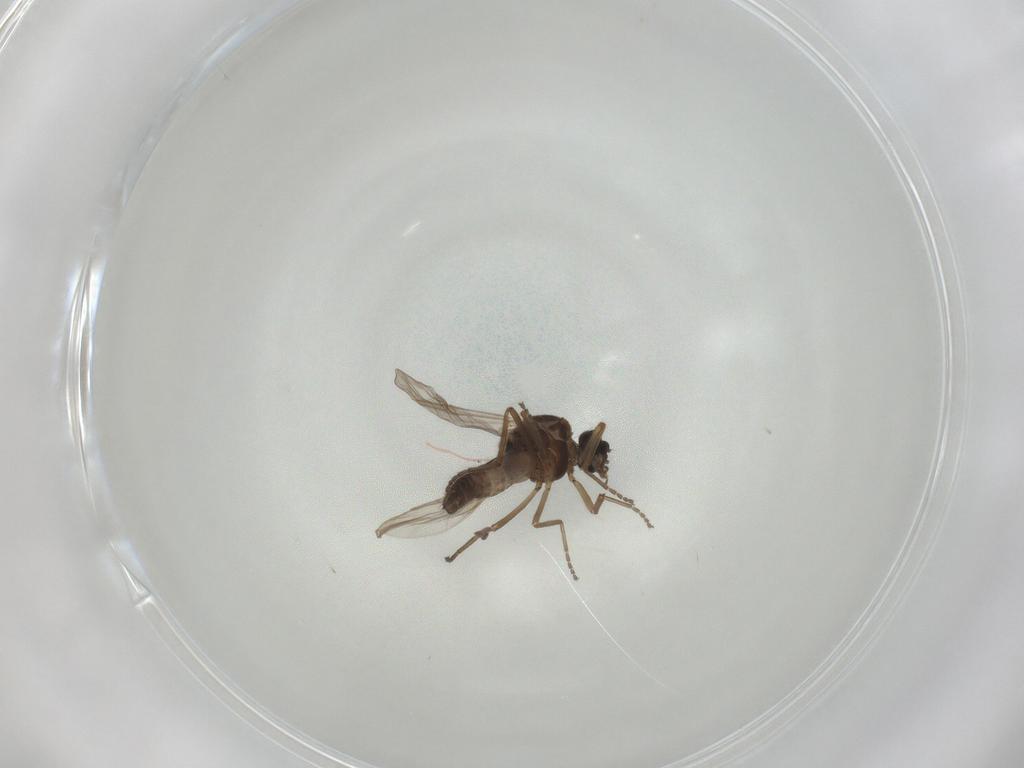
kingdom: Animalia
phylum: Arthropoda
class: Insecta
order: Diptera
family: Ceratopogonidae
